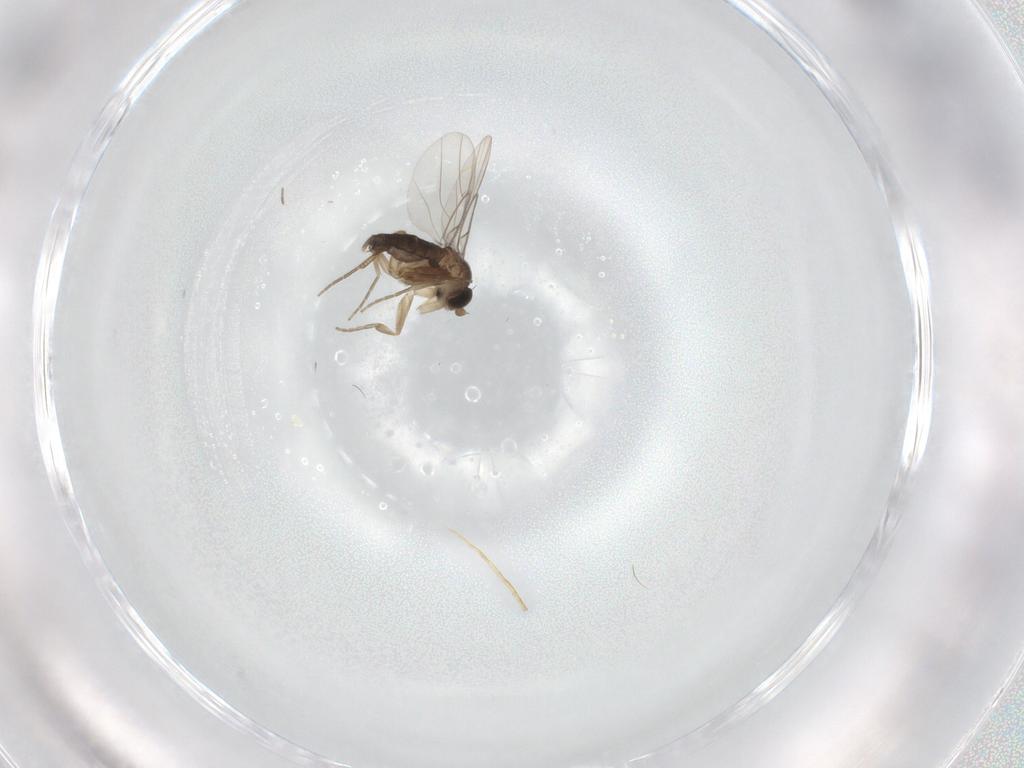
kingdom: Animalia
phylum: Arthropoda
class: Insecta
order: Diptera
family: Phoridae
